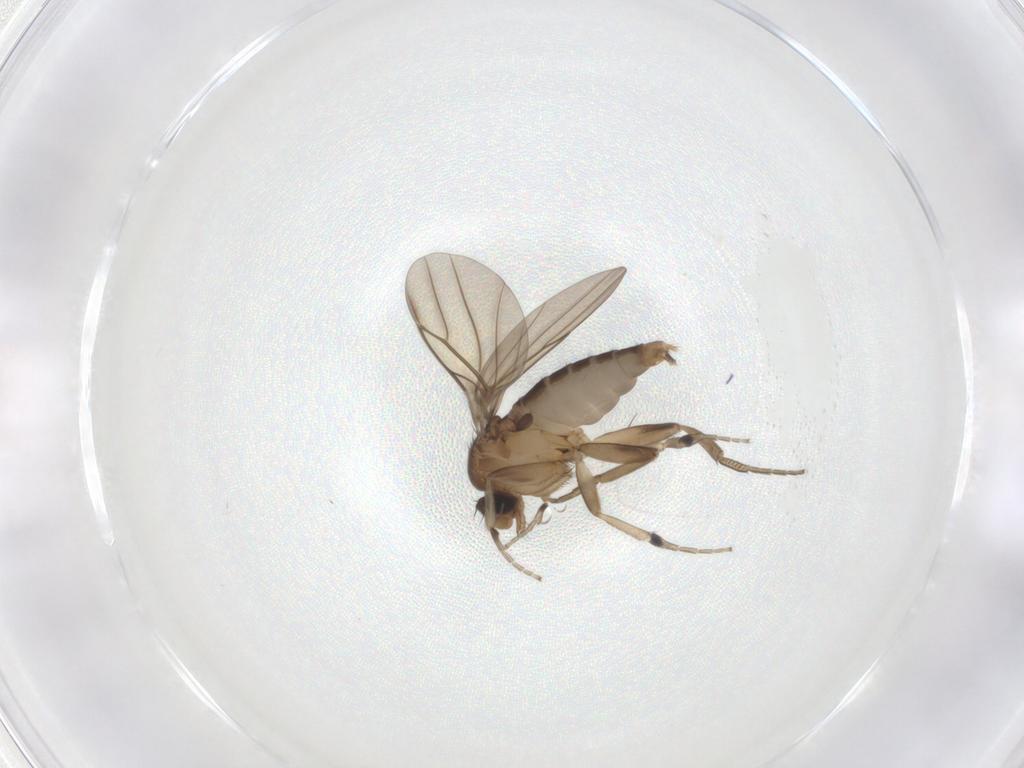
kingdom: Animalia
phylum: Arthropoda
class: Insecta
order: Diptera
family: Phoridae
